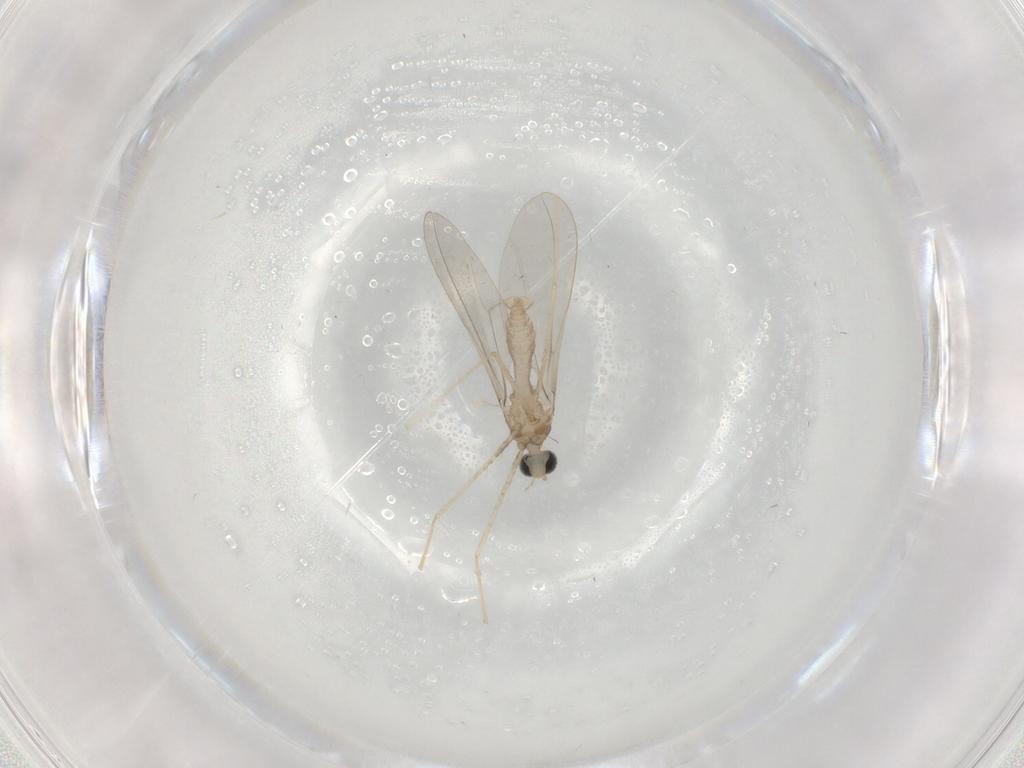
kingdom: Animalia
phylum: Arthropoda
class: Insecta
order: Diptera
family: Cecidomyiidae
